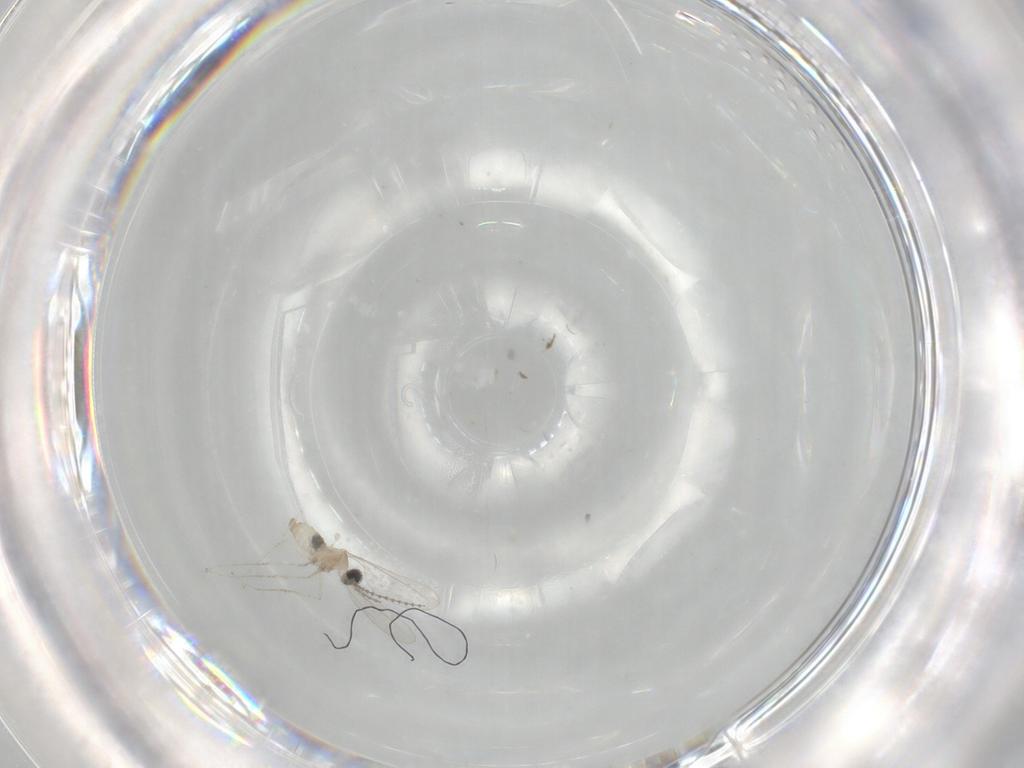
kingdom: Animalia
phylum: Arthropoda
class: Insecta
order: Diptera
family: Cecidomyiidae
